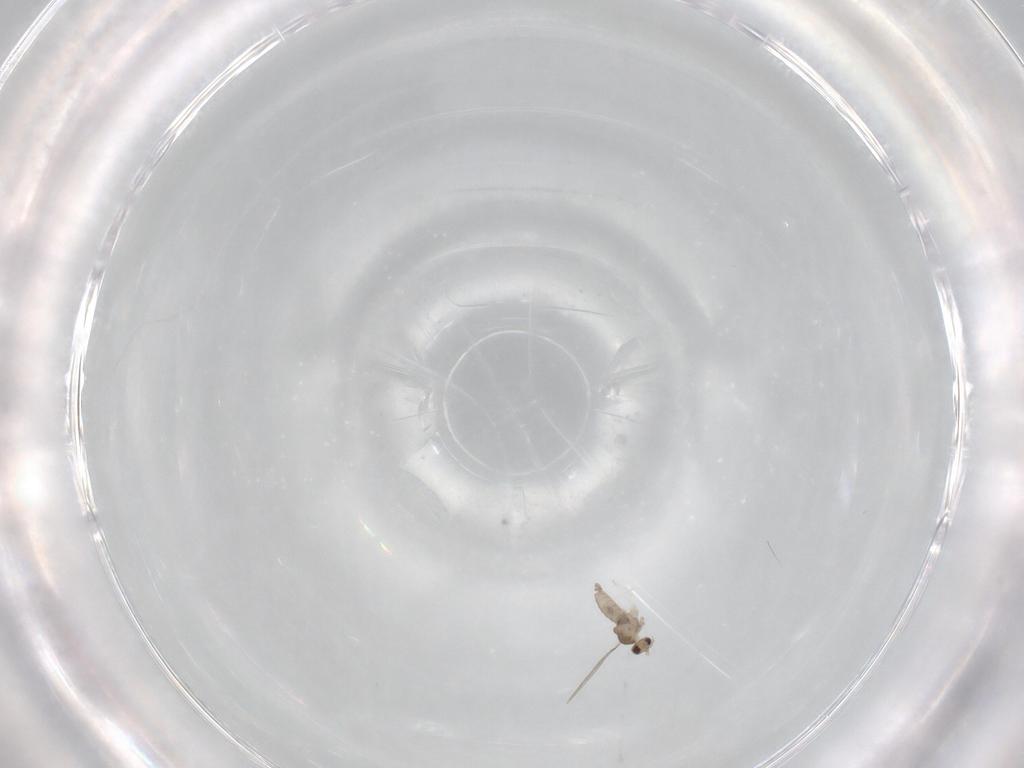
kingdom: Animalia
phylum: Arthropoda
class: Insecta
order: Diptera
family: Cecidomyiidae
